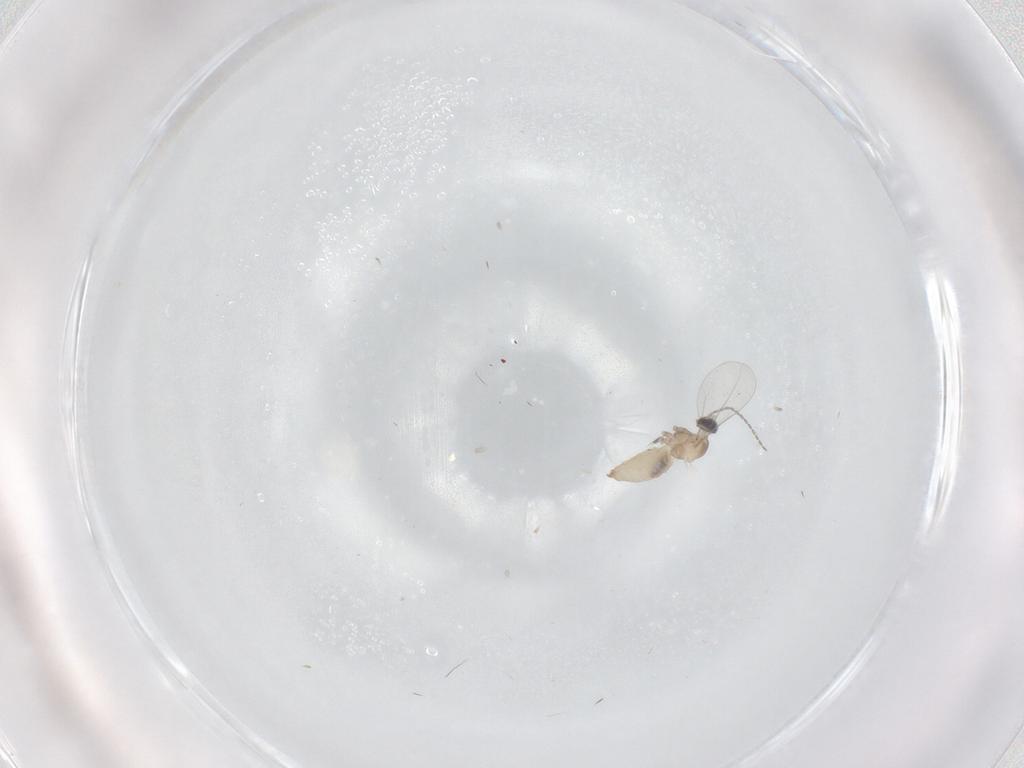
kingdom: Animalia
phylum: Arthropoda
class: Insecta
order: Diptera
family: Cecidomyiidae
